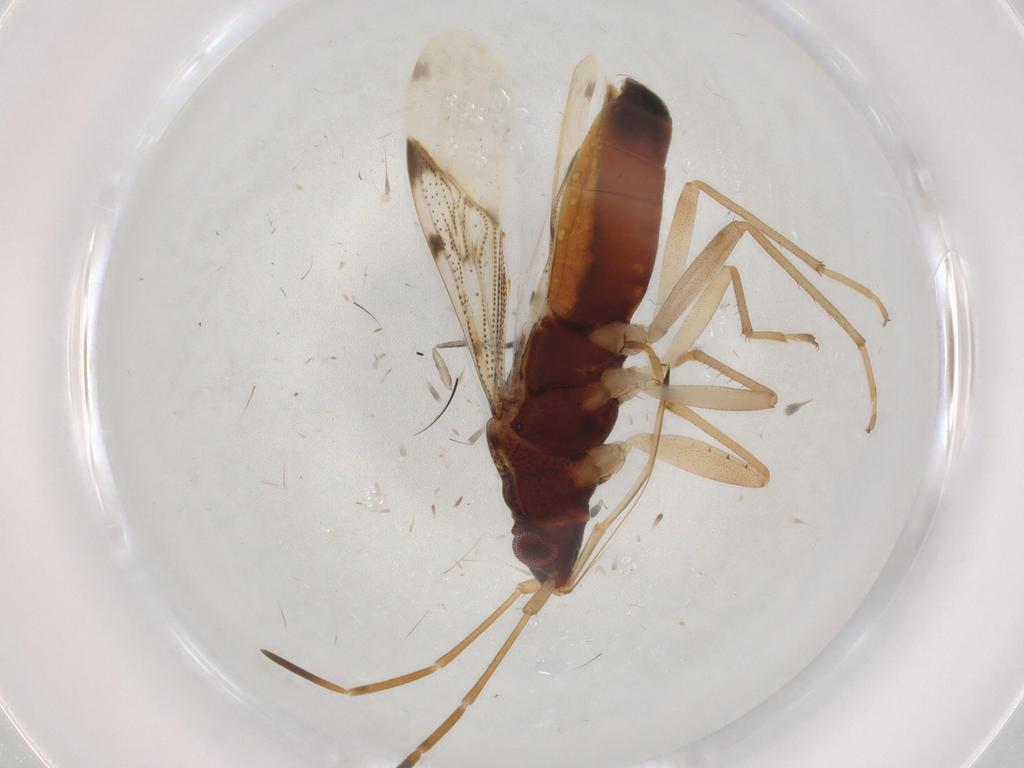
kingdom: Animalia
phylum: Arthropoda
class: Insecta
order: Hemiptera
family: Rhyparochromidae
